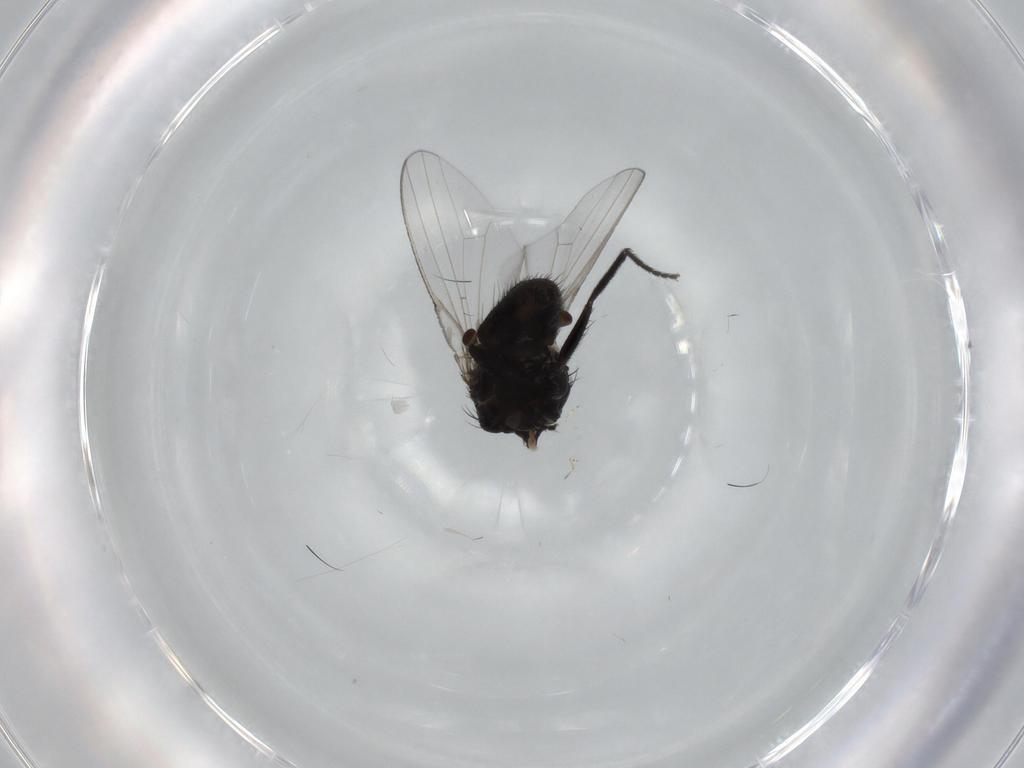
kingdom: Animalia
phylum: Arthropoda
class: Insecta
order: Diptera
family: Milichiidae
